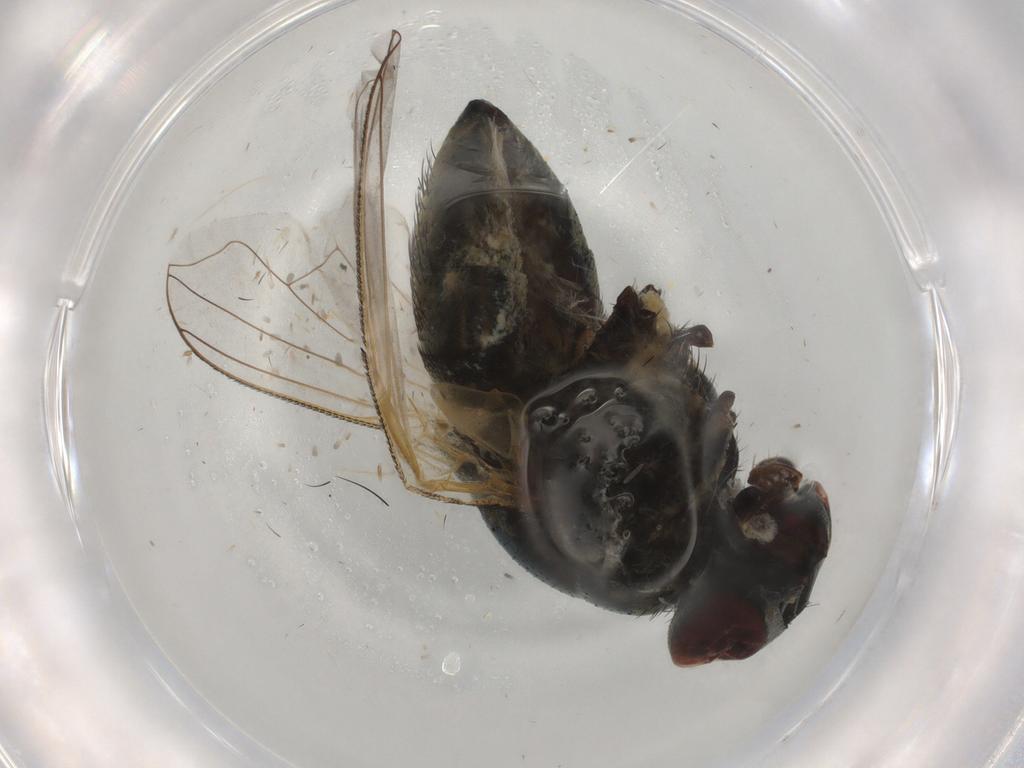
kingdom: Animalia
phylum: Arthropoda
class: Insecta
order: Diptera
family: Muscidae
